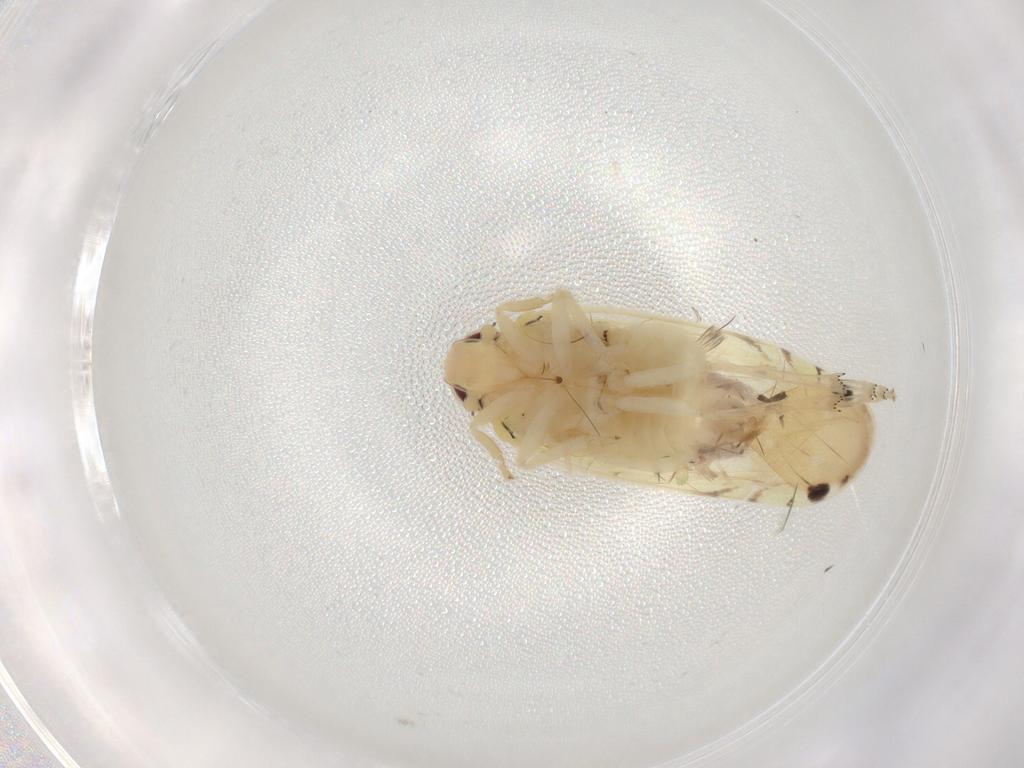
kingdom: Animalia
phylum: Arthropoda
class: Insecta
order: Hemiptera
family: Achilidae
